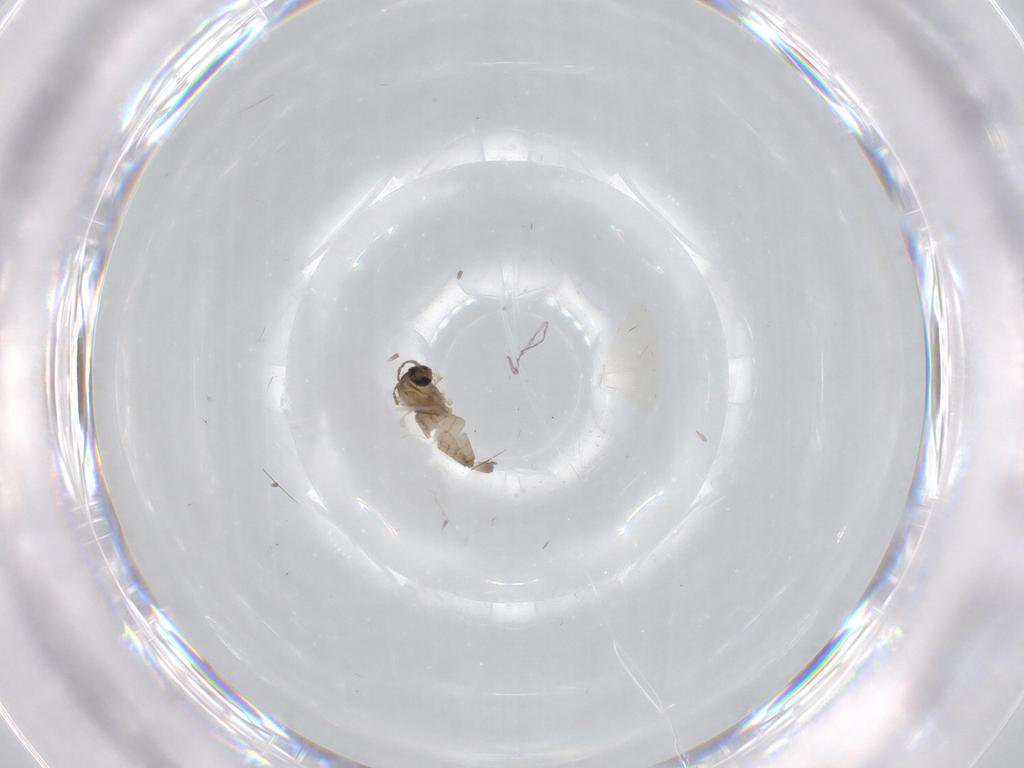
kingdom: Animalia
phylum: Arthropoda
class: Insecta
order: Diptera
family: Cecidomyiidae
